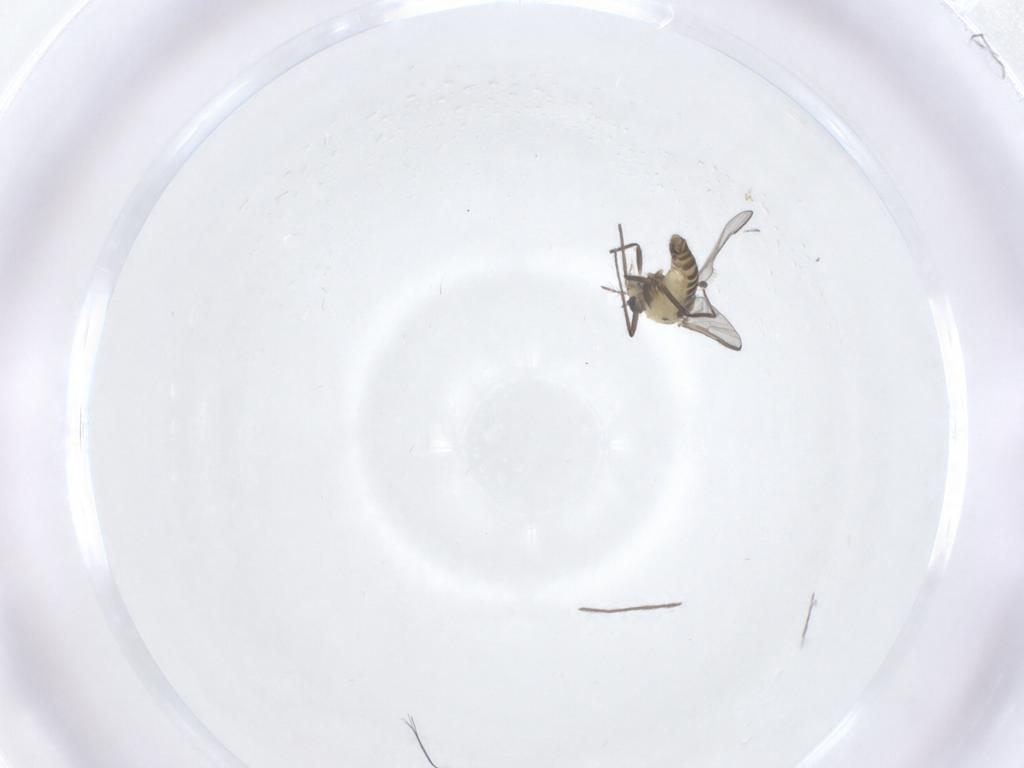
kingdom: Animalia
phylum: Arthropoda
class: Insecta
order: Diptera
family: Chironomidae
